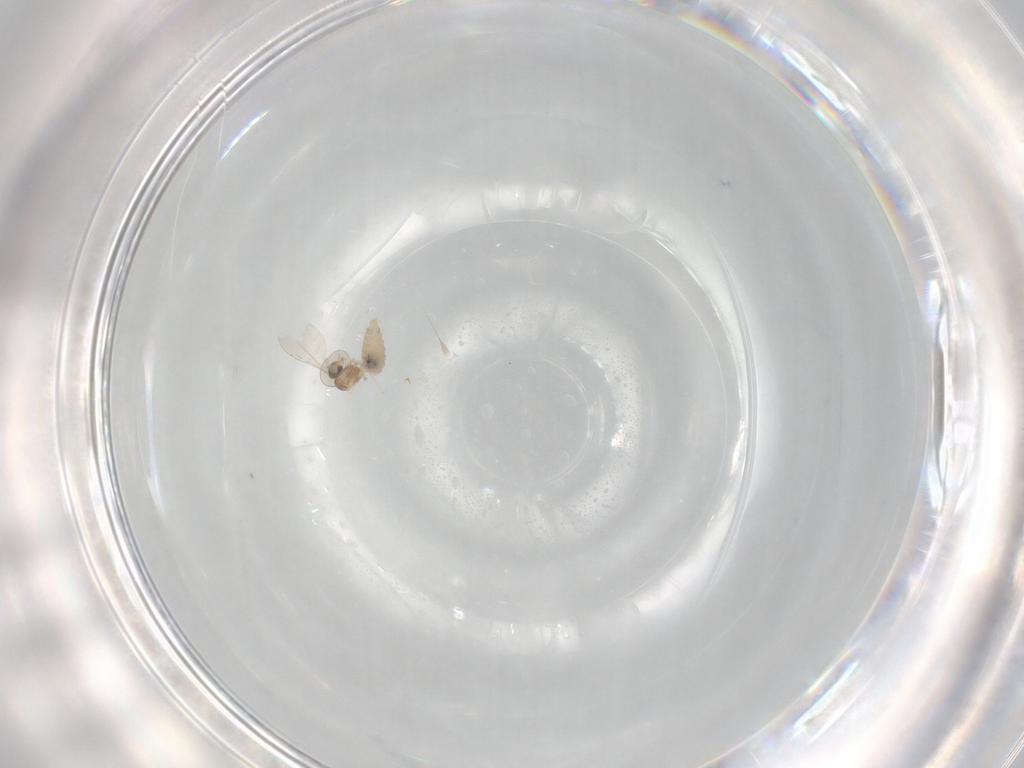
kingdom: Animalia
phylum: Arthropoda
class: Insecta
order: Diptera
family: Cecidomyiidae
